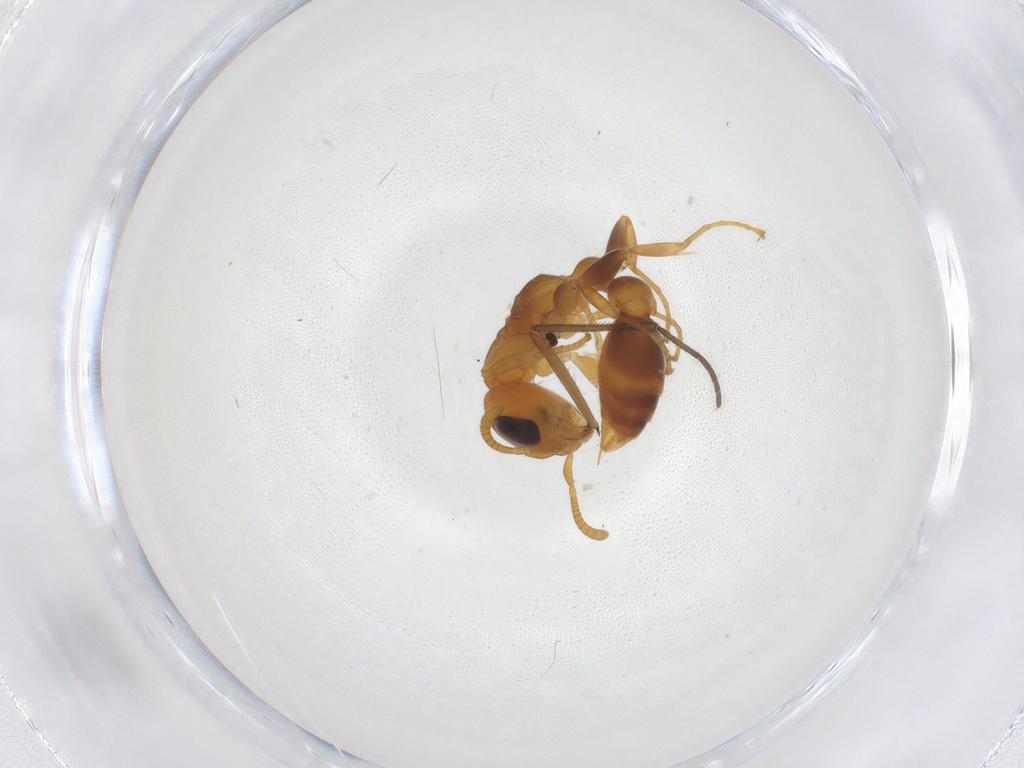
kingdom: Animalia
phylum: Arthropoda
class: Insecta
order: Hymenoptera
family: Formicidae
